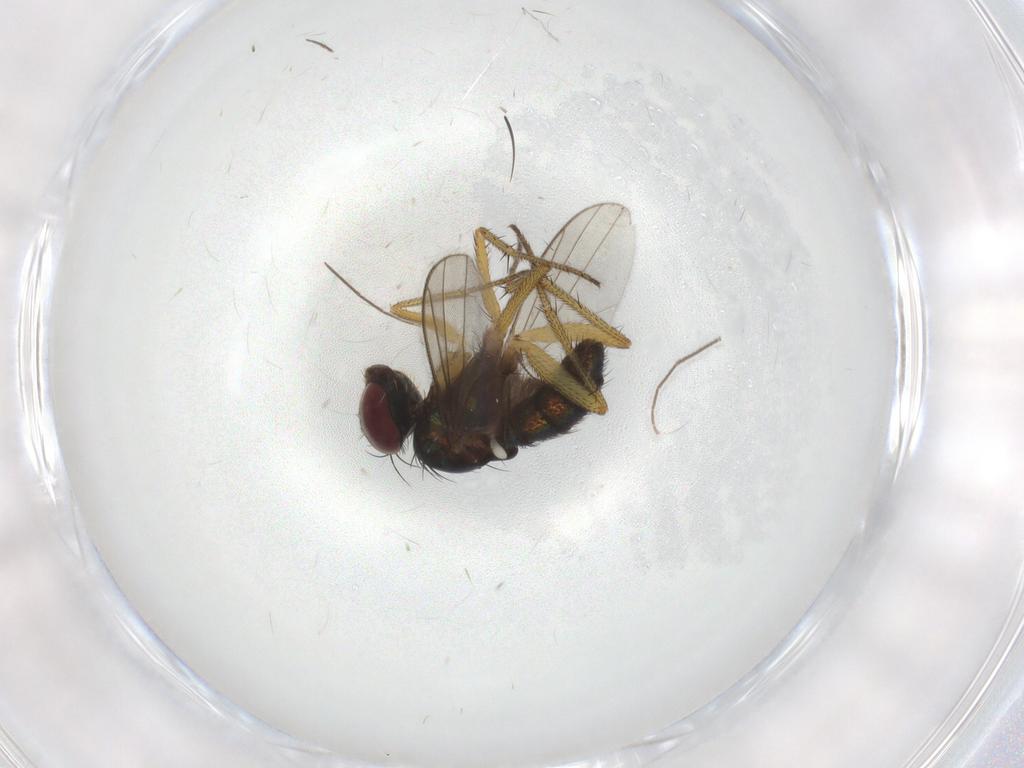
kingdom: Animalia
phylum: Arthropoda
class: Insecta
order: Diptera
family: Chironomidae
